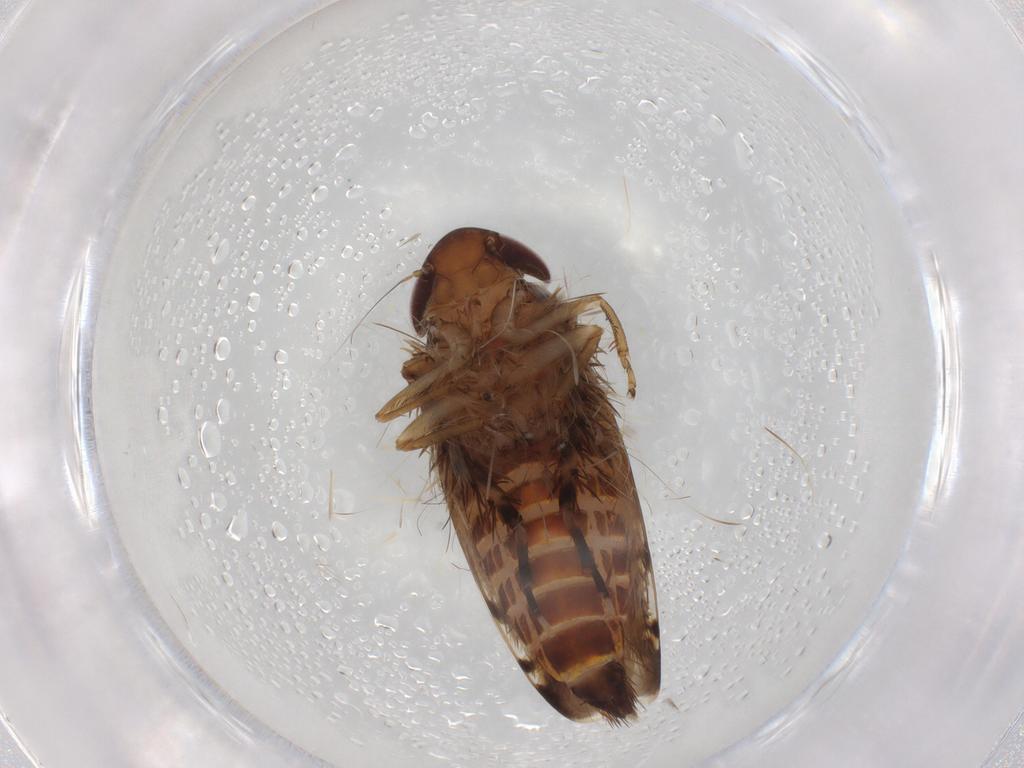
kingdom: Animalia
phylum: Arthropoda
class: Insecta
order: Hemiptera
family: Cicadellidae
